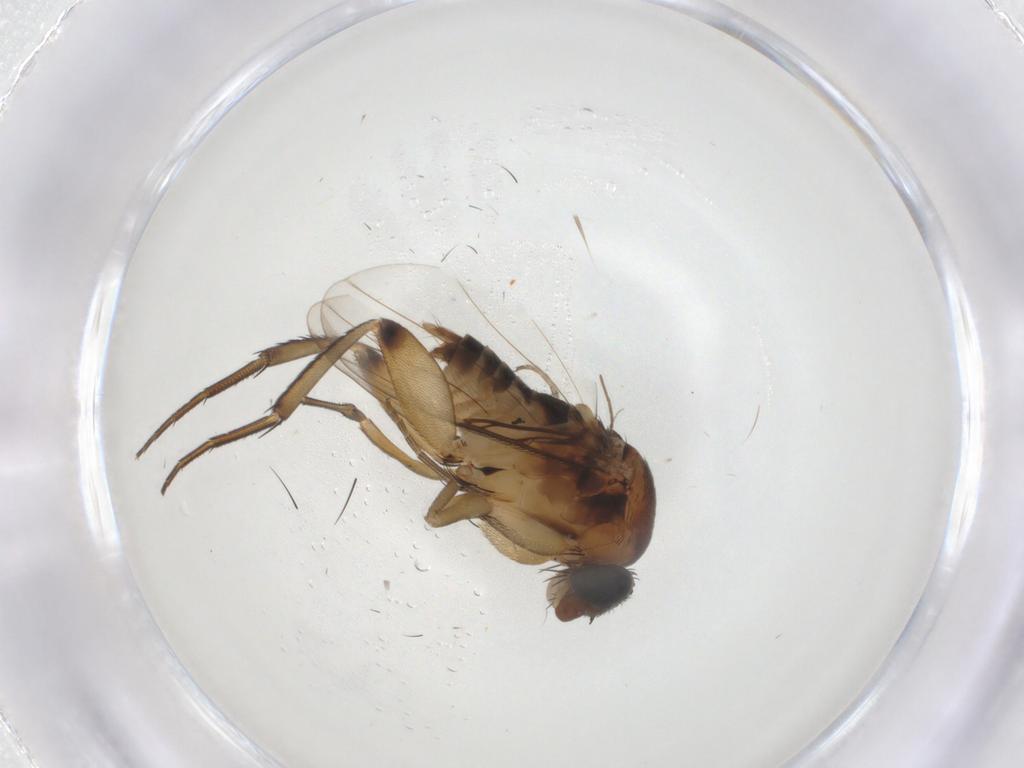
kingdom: Animalia
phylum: Arthropoda
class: Insecta
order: Diptera
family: Phoridae
